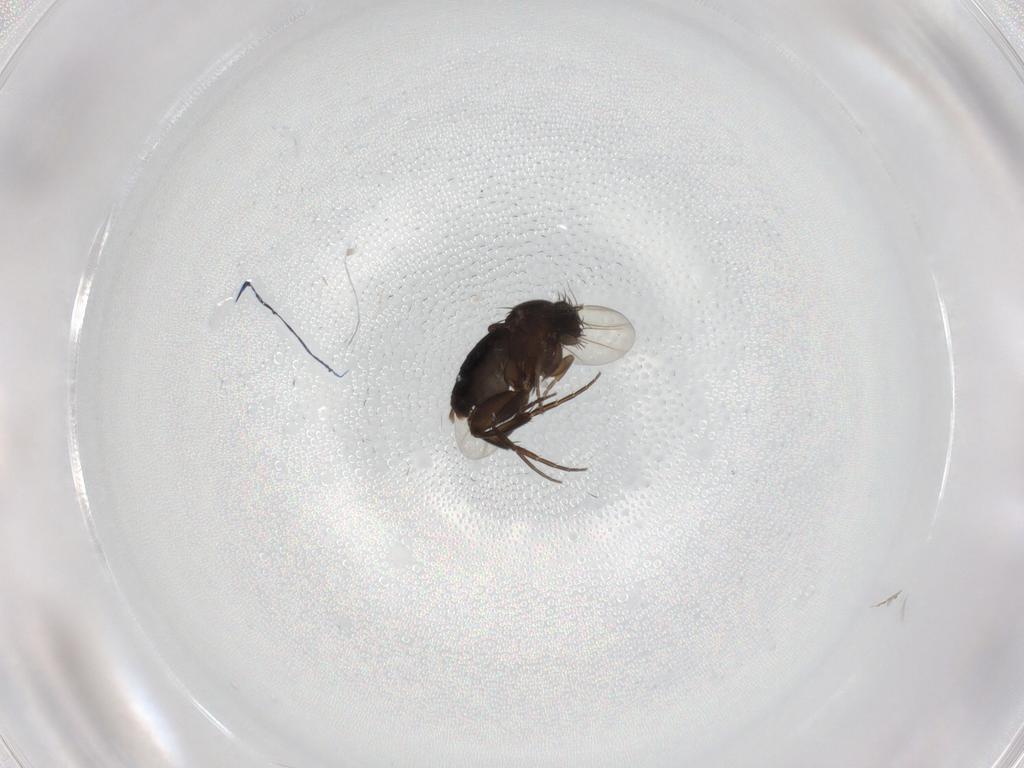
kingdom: Animalia
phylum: Arthropoda
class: Insecta
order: Diptera
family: Phoridae
